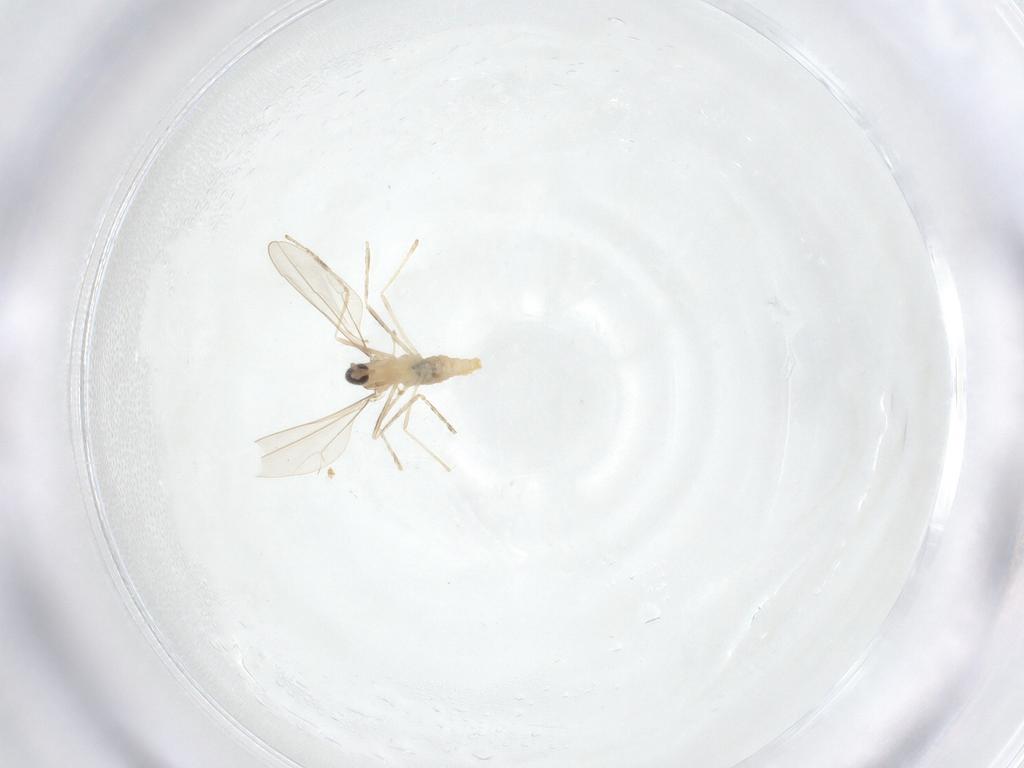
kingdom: Animalia
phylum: Arthropoda
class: Insecta
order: Diptera
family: Cecidomyiidae
